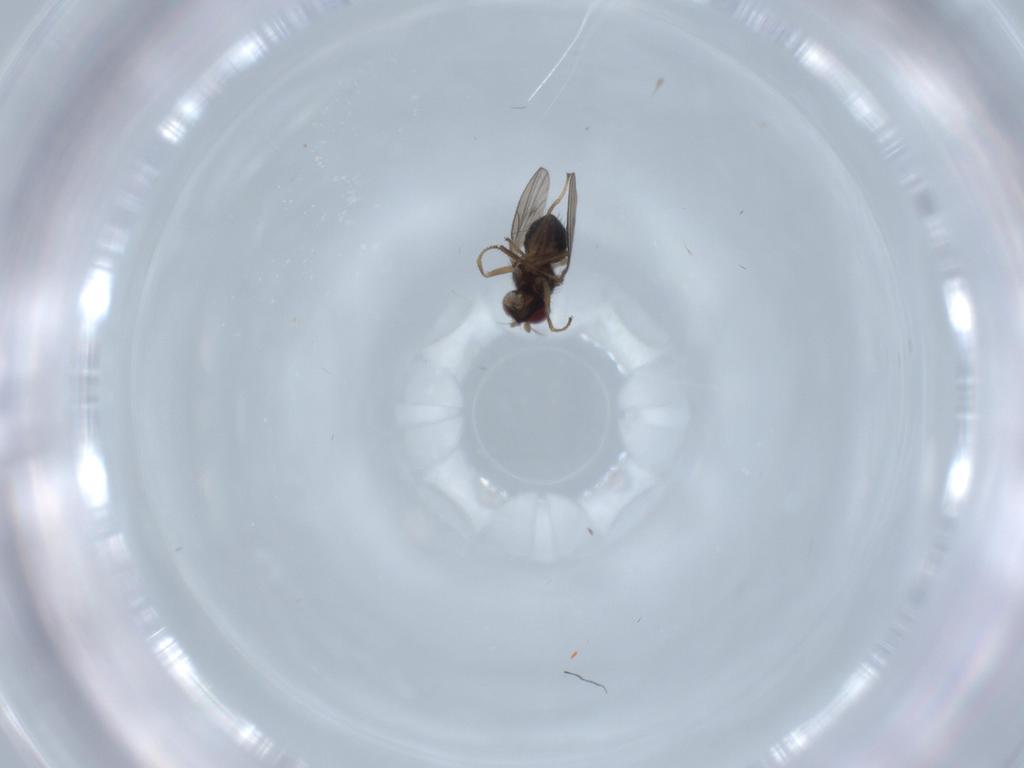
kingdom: Animalia
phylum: Arthropoda
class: Insecta
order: Diptera
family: Ephydridae
